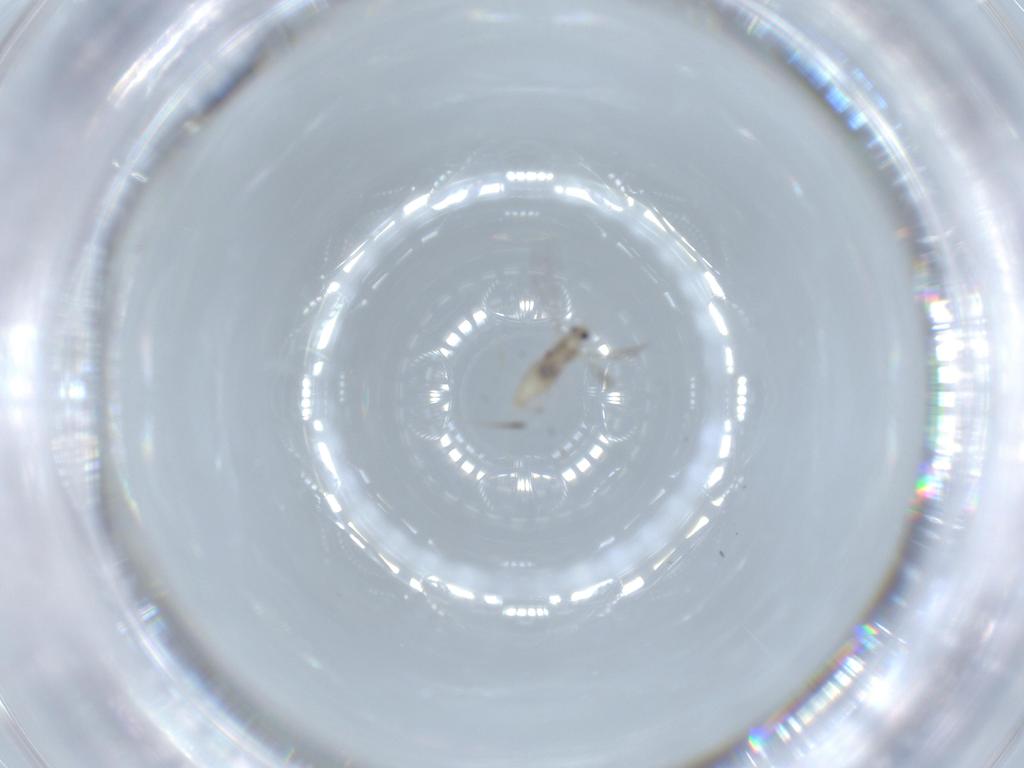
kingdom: Animalia
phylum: Arthropoda
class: Insecta
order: Diptera
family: Cecidomyiidae
